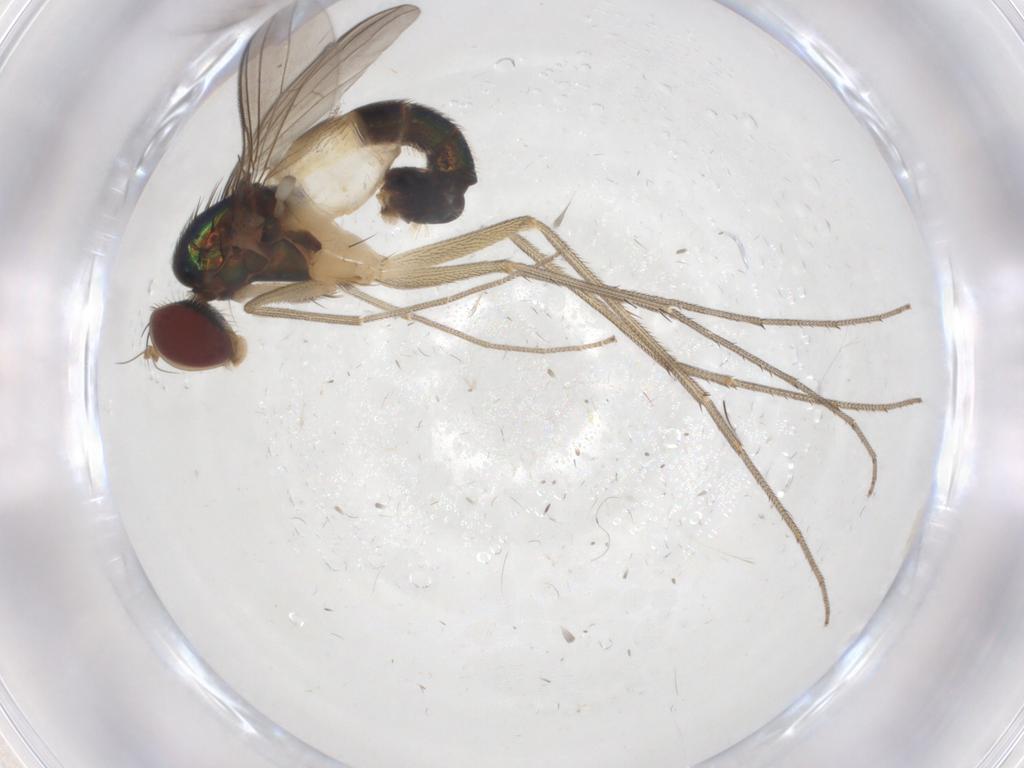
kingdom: Animalia
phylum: Arthropoda
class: Insecta
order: Diptera
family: Dolichopodidae
